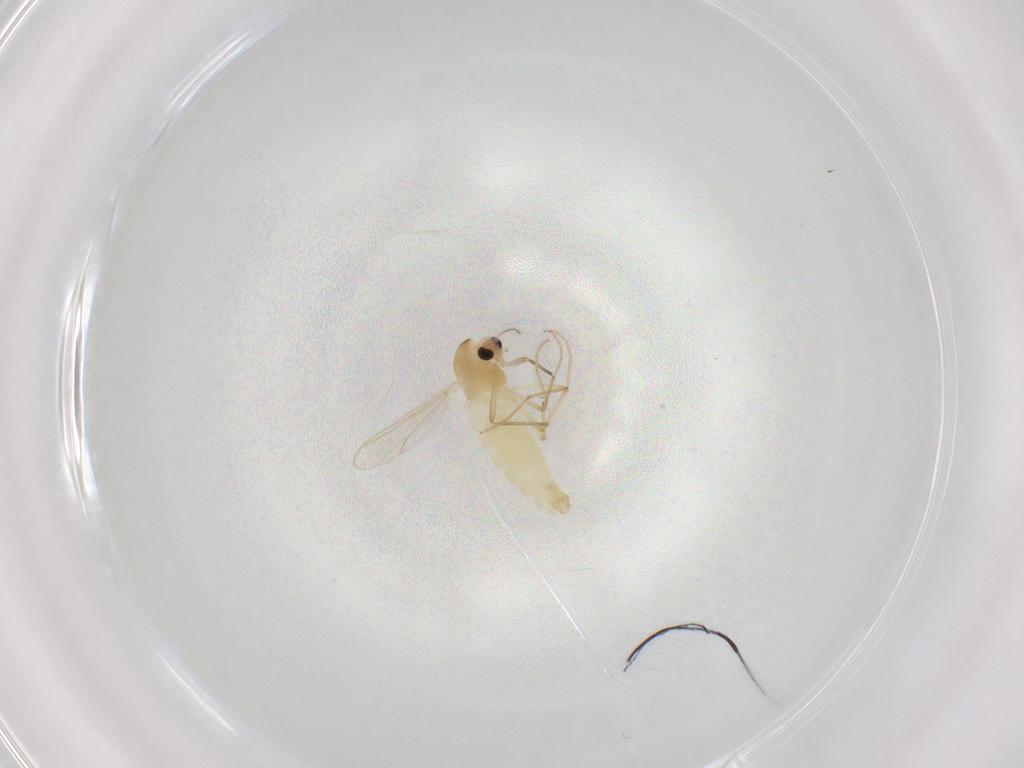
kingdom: Animalia
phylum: Arthropoda
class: Insecta
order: Diptera
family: Chironomidae
